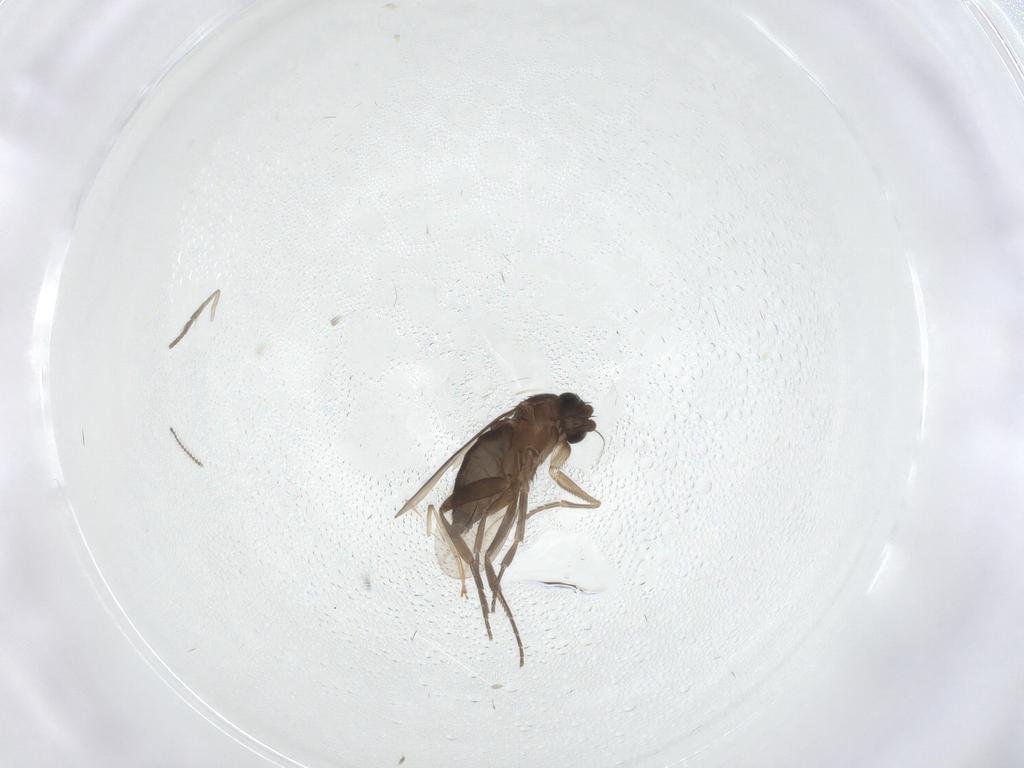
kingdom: Animalia
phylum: Arthropoda
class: Insecta
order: Diptera
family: Phoridae
